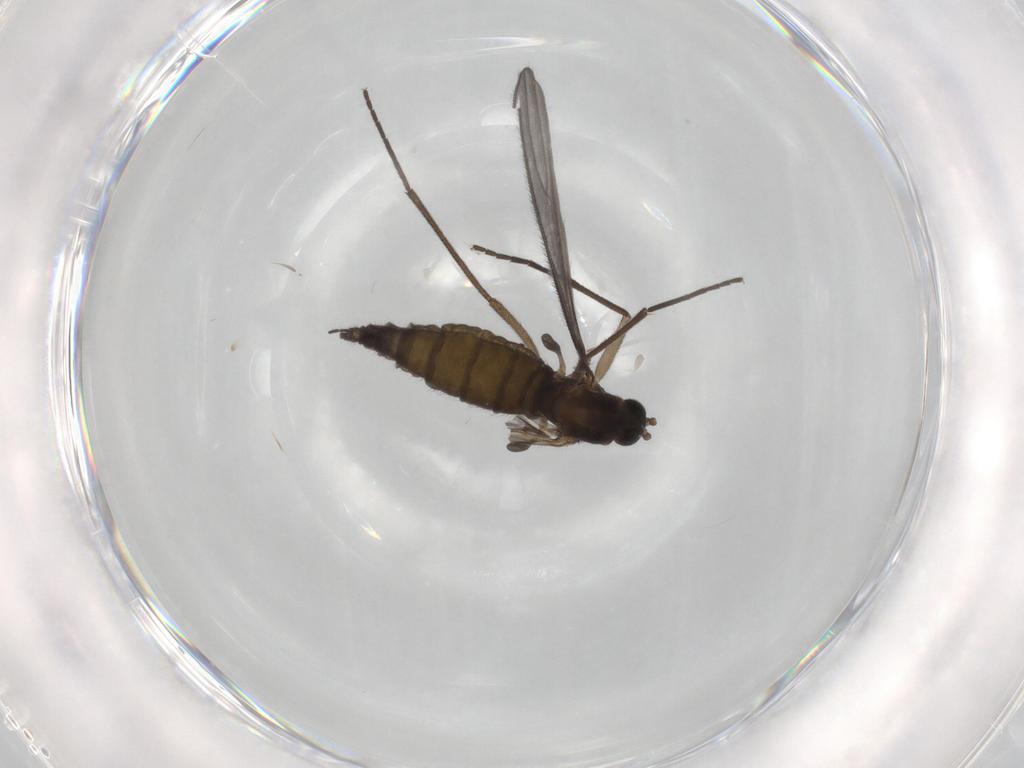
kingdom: Animalia
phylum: Arthropoda
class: Insecta
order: Diptera
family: Sciaridae
